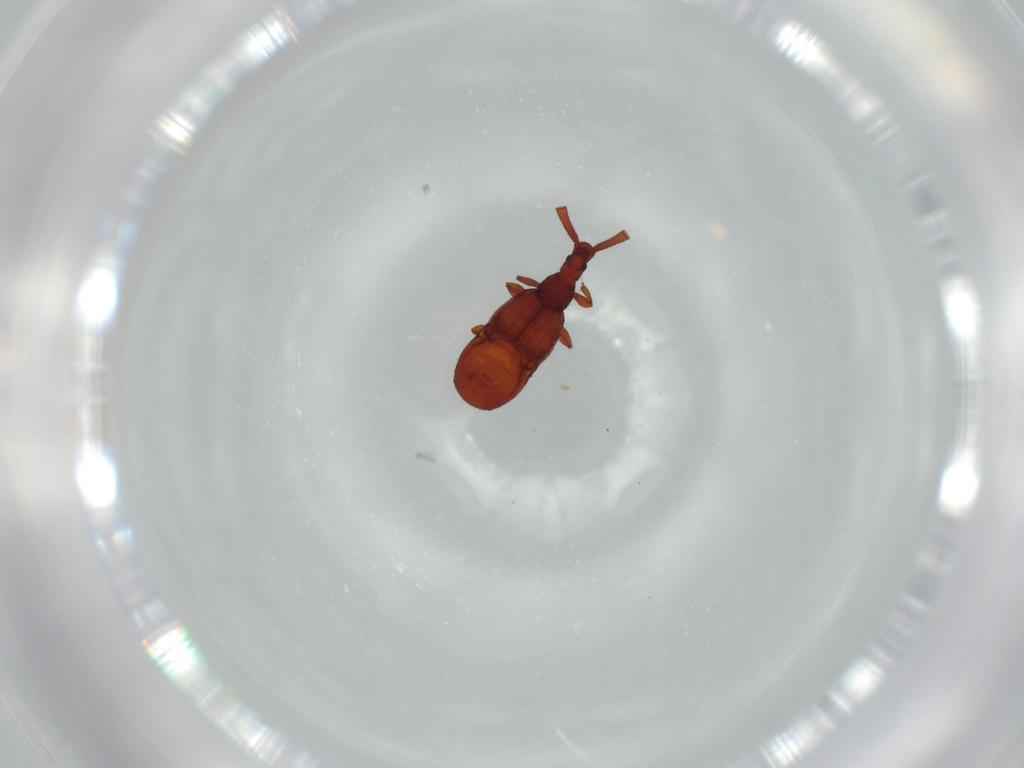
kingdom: Animalia
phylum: Arthropoda
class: Insecta
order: Coleoptera
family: Staphylinidae
